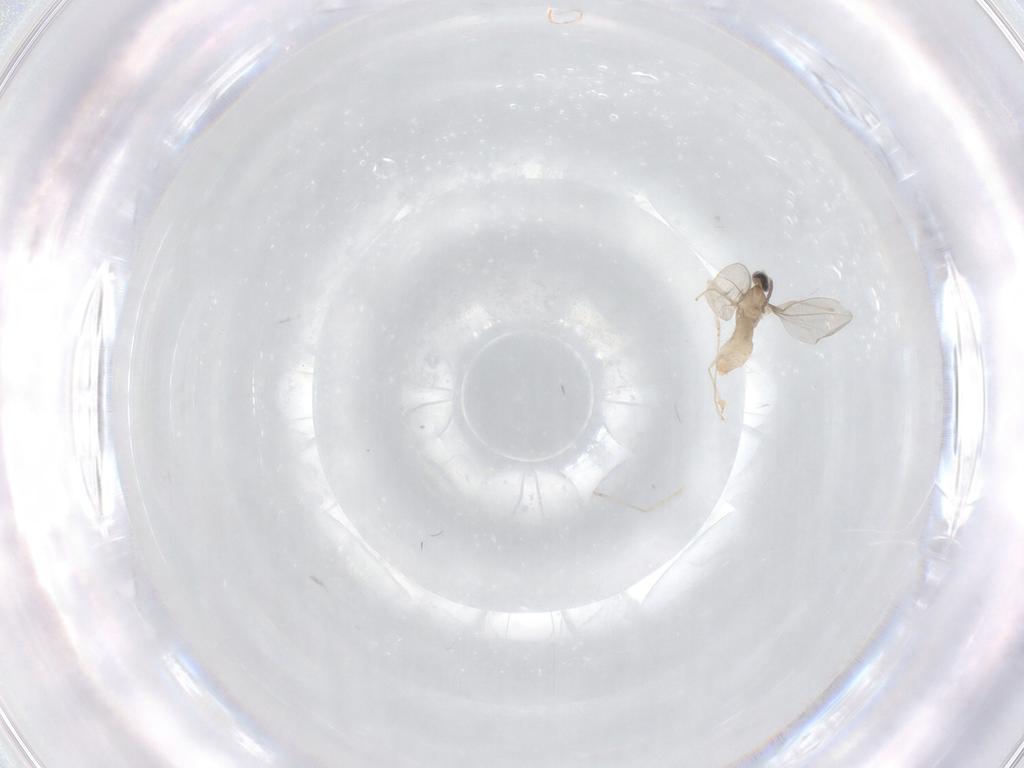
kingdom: Animalia
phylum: Arthropoda
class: Insecta
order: Diptera
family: Cecidomyiidae
